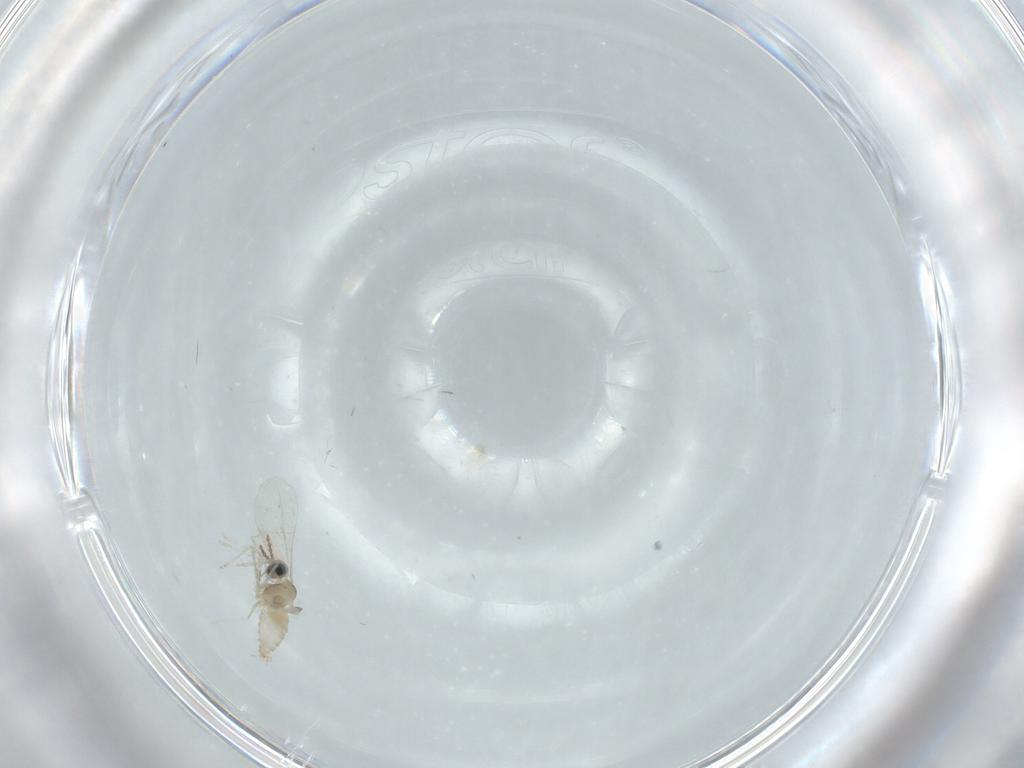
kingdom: Animalia
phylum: Arthropoda
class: Insecta
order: Diptera
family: Cecidomyiidae
